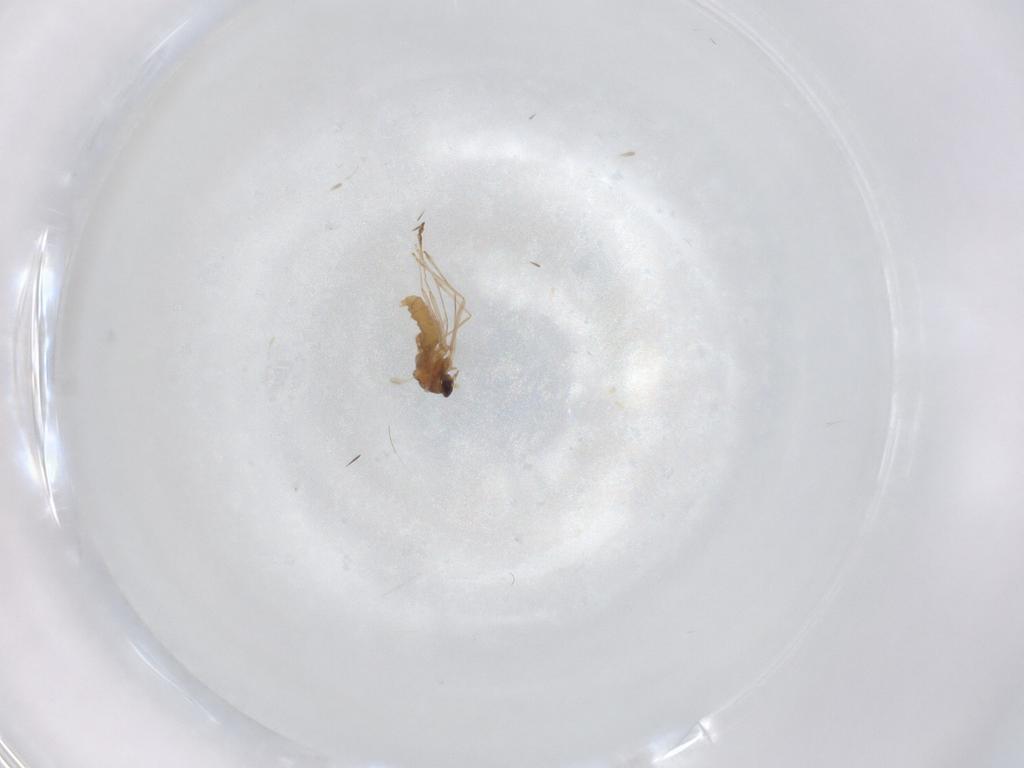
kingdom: Animalia
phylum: Arthropoda
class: Insecta
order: Diptera
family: Cecidomyiidae
